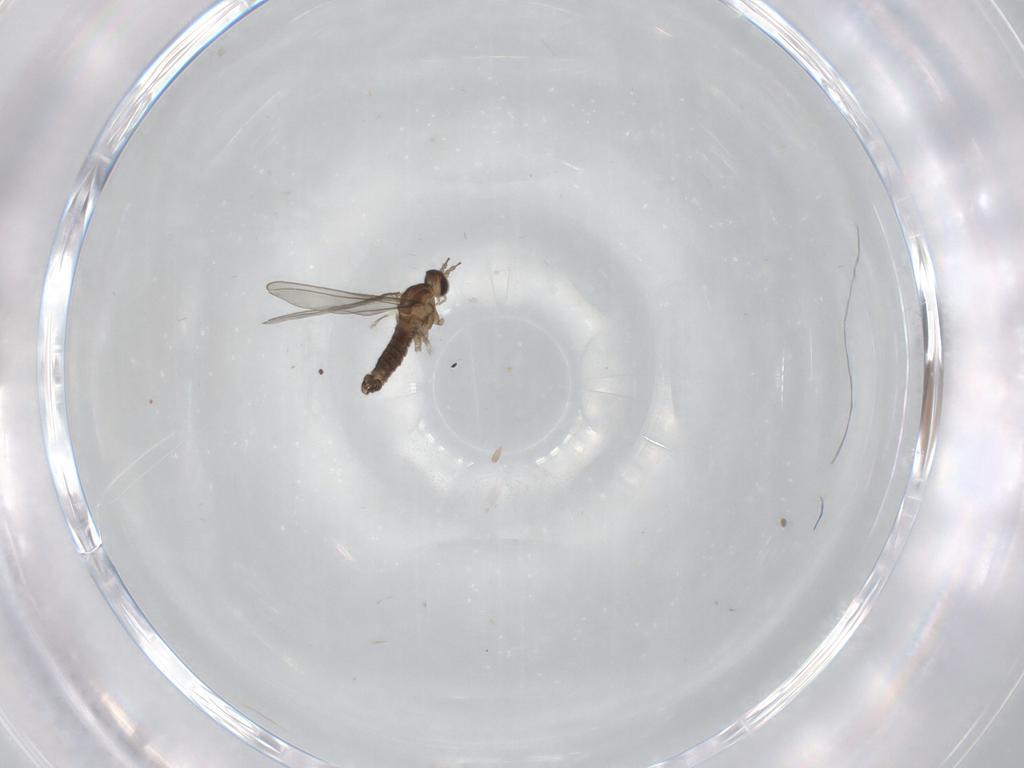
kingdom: Animalia
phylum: Arthropoda
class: Insecta
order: Diptera
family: Cecidomyiidae
